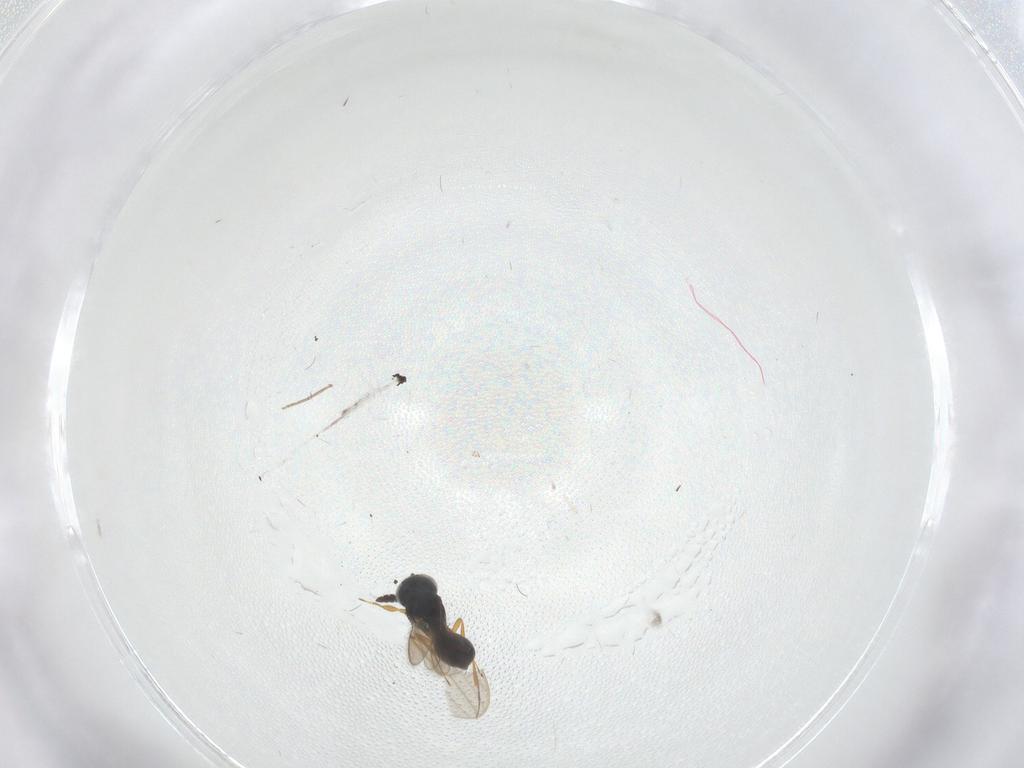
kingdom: Animalia
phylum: Arthropoda
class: Insecta
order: Hymenoptera
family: Scelionidae
